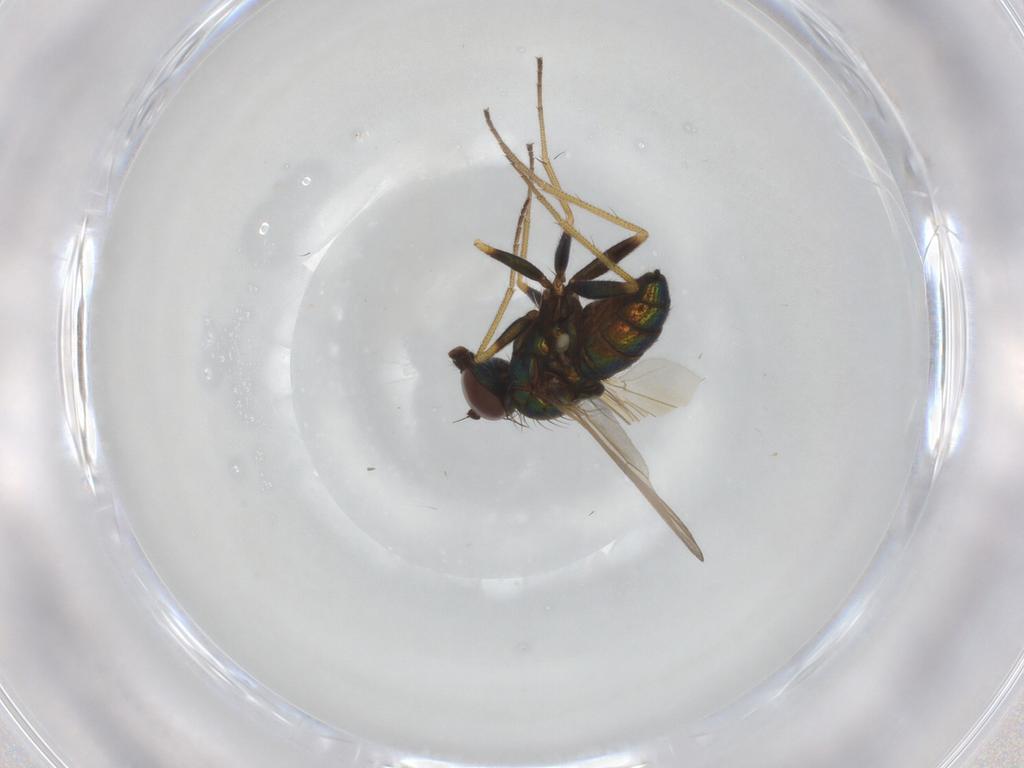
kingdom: Animalia
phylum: Arthropoda
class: Insecta
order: Diptera
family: Dolichopodidae
